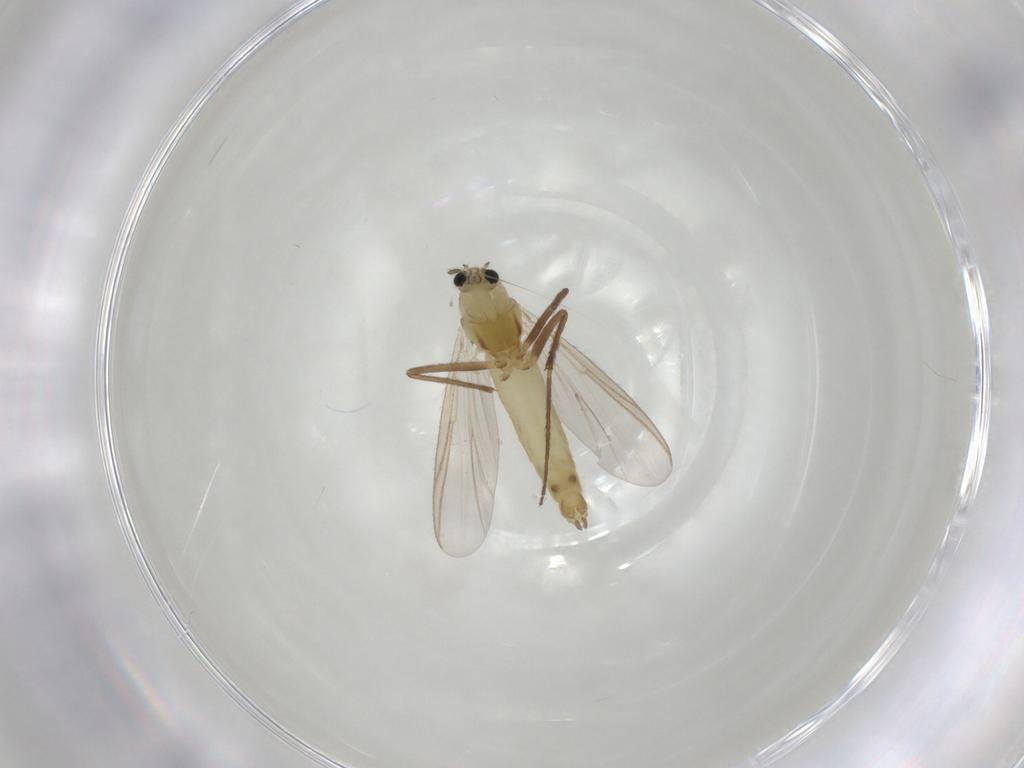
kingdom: Animalia
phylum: Arthropoda
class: Insecta
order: Diptera
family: Chironomidae
